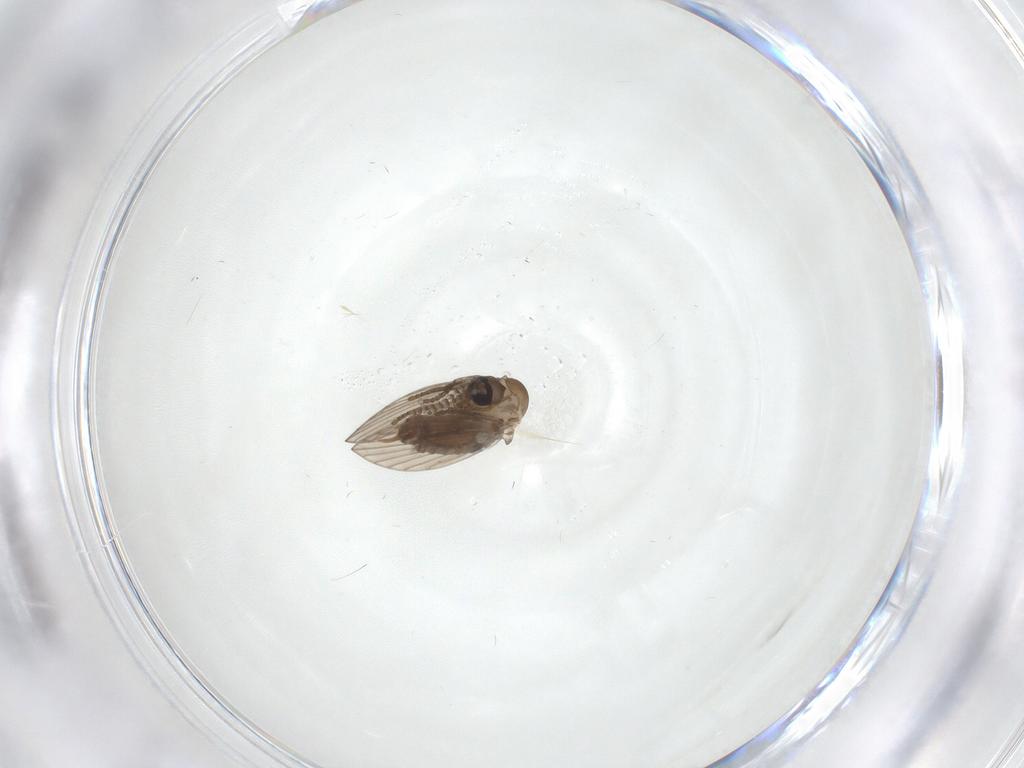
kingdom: Animalia
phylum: Arthropoda
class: Insecta
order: Diptera
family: Psychodidae
